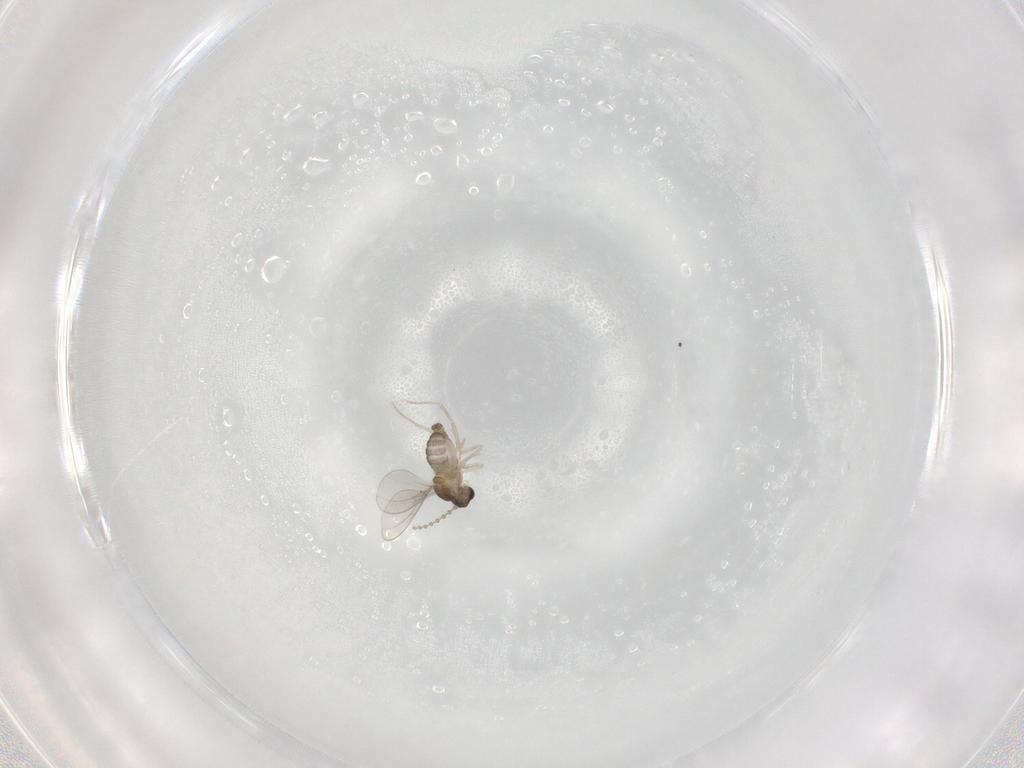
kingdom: Animalia
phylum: Arthropoda
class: Insecta
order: Diptera
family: Cecidomyiidae
